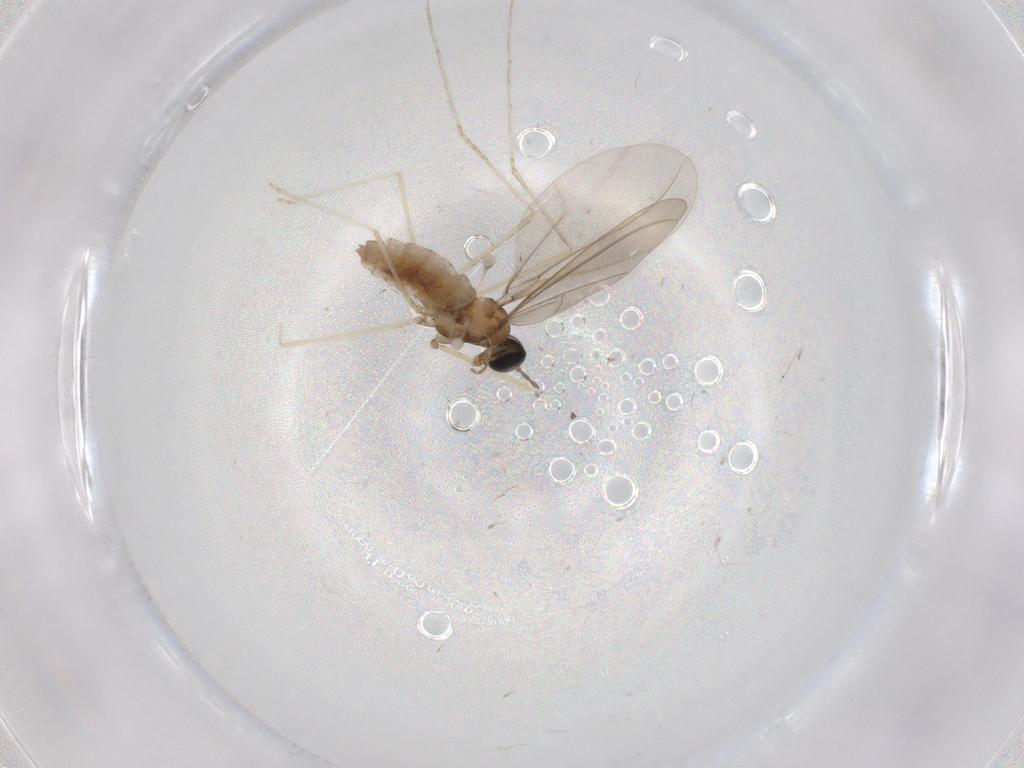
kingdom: Animalia
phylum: Arthropoda
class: Insecta
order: Diptera
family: Cecidomyiidae
